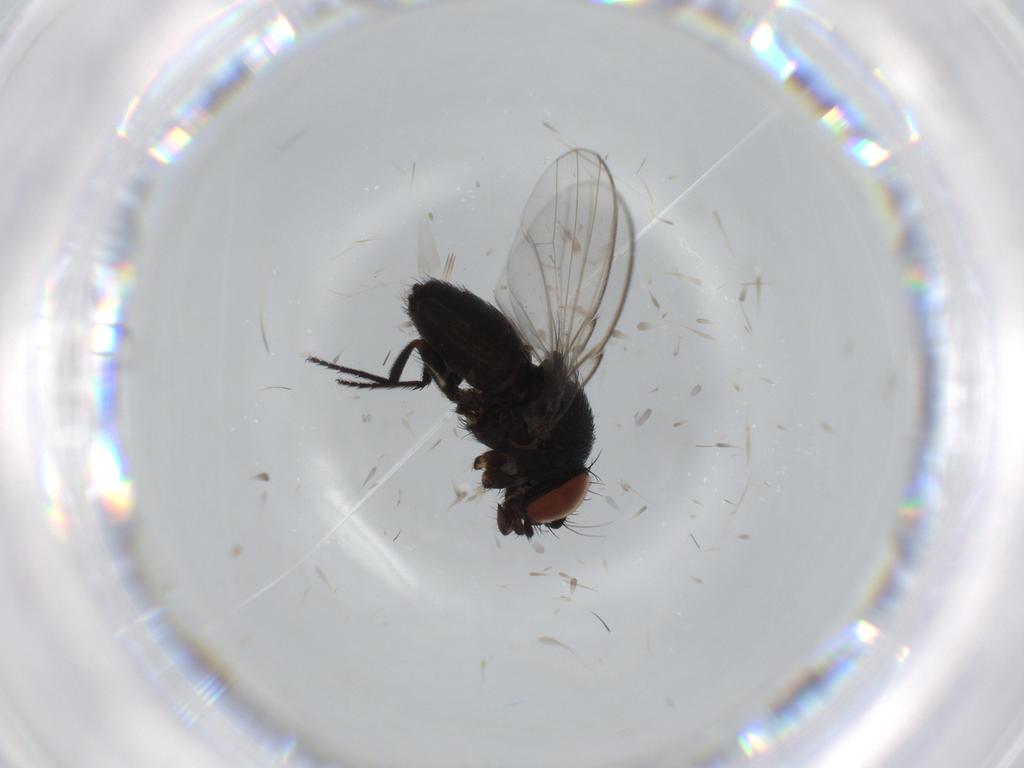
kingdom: Animalia
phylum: Arthropoda
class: Insecta
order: Diptera
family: Milichiidae
